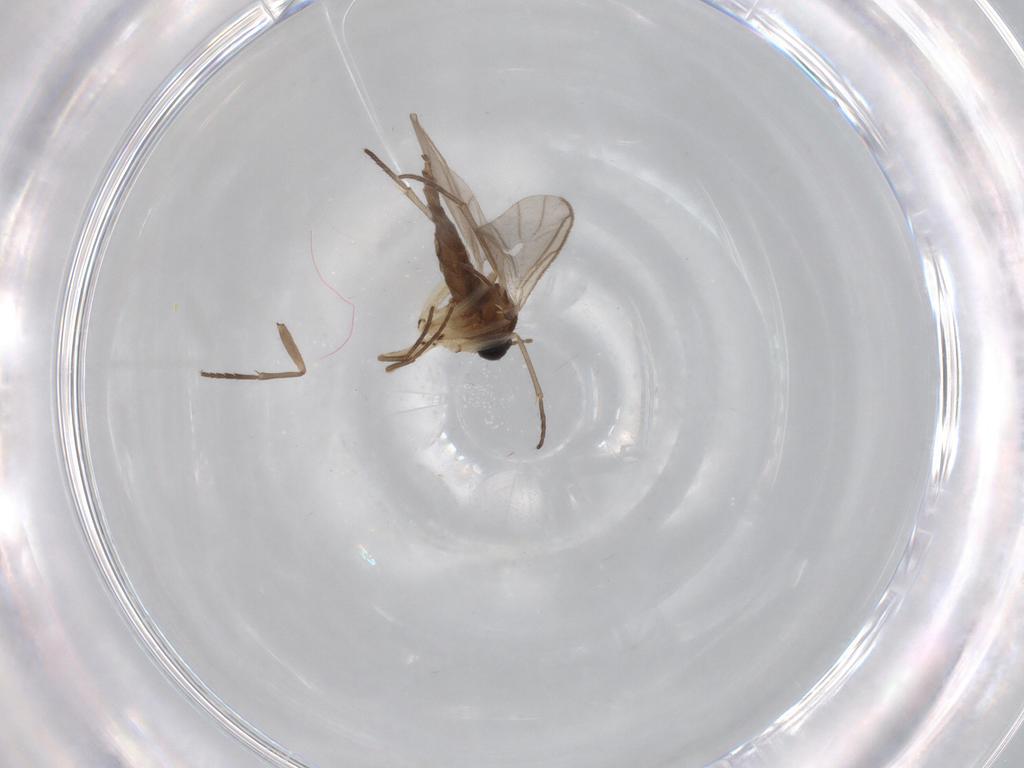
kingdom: Animalia
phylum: Arthropoda
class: Insecta
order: Diptera
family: Sciaridae
